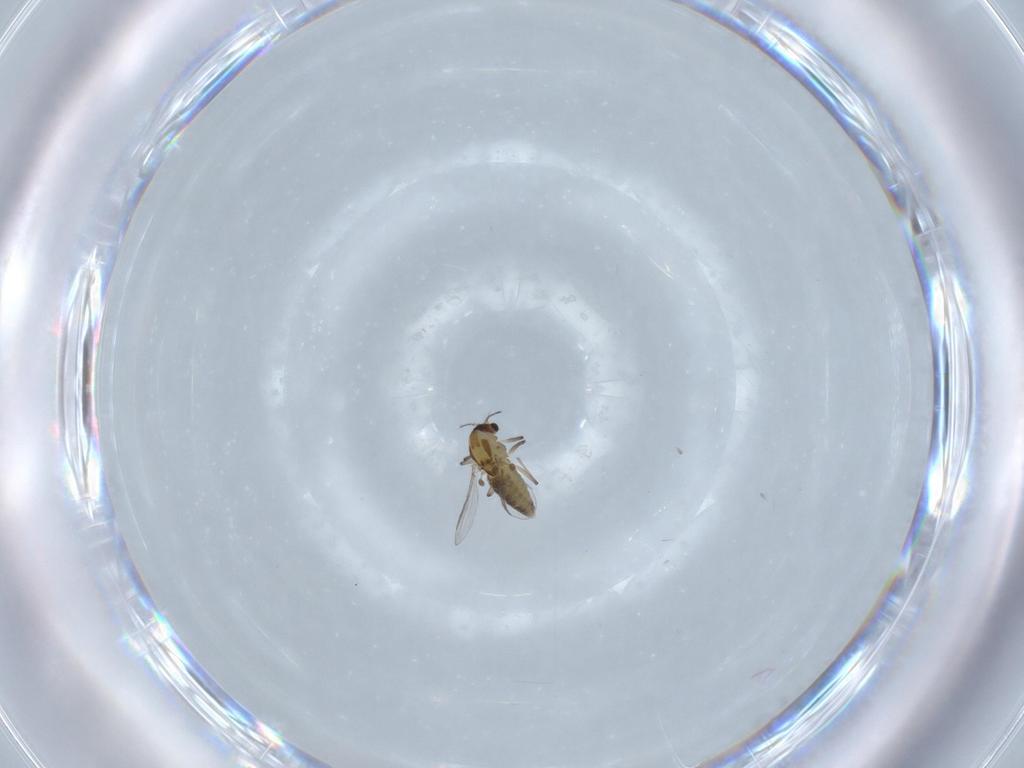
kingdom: Animalia
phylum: Arthropoda
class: Insecta
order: Diptera
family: Chironomidae
